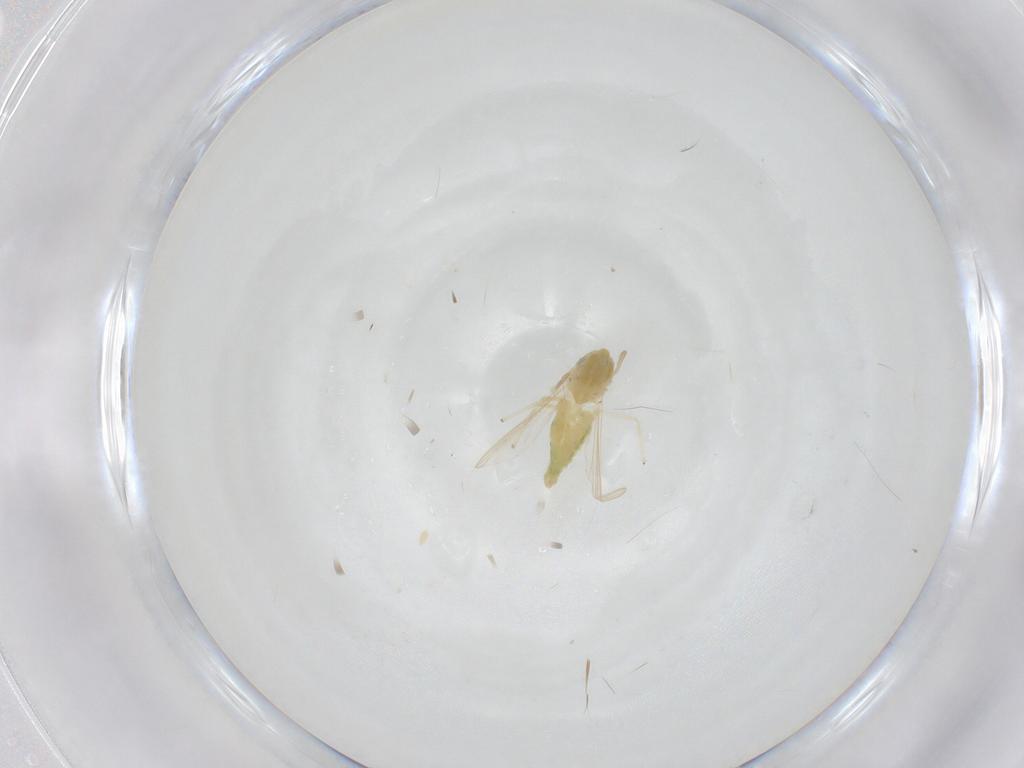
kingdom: Animalia
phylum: Arthropoda
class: Insecta
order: Diptera
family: Chironomidae
